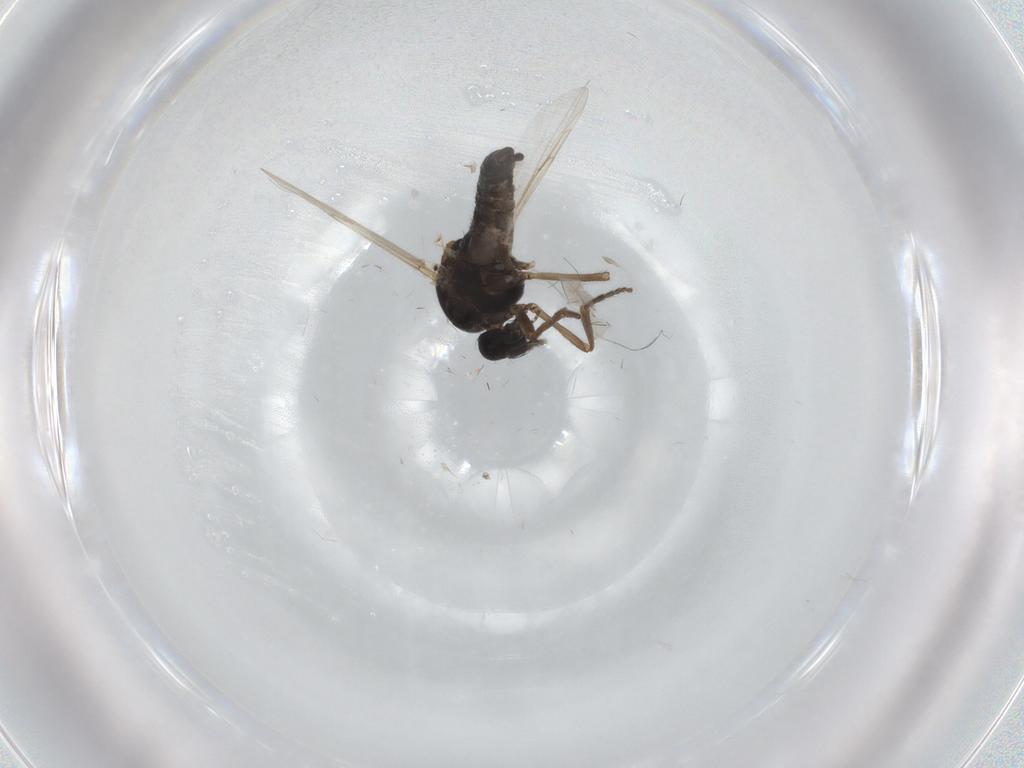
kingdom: Animalia
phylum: Arthropoda
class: Insecta
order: Diptera
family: Ceratopogonidae
